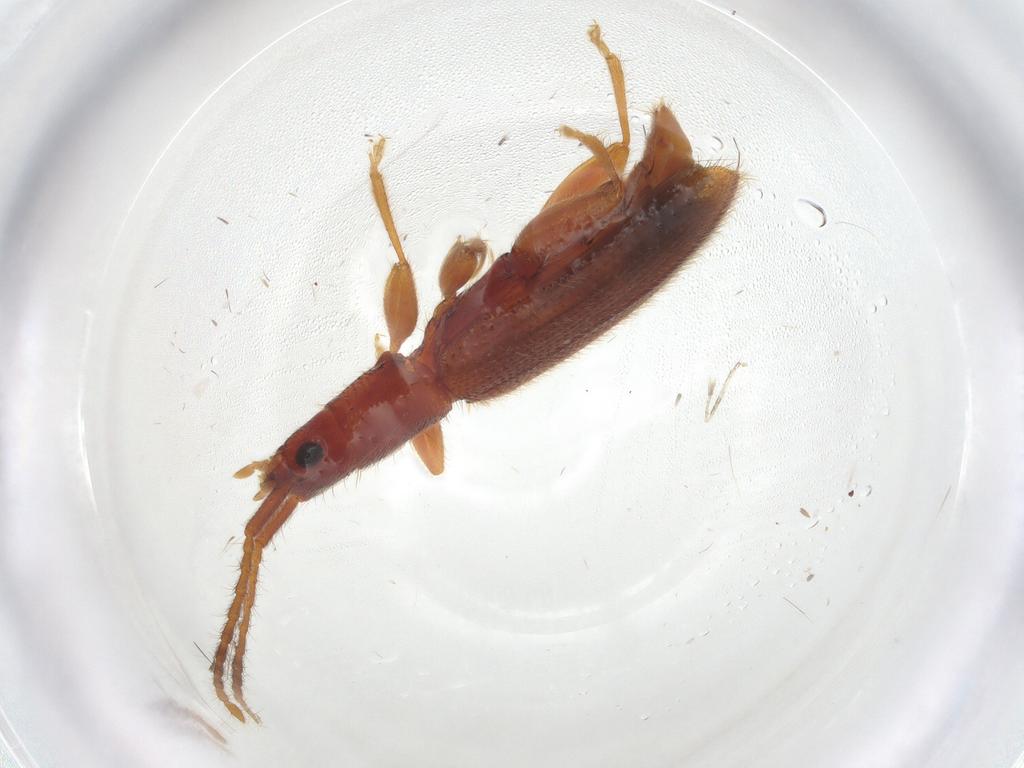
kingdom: Animalia
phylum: Arthropoda
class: Insecta
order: Coleoptera
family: Silvanidae
